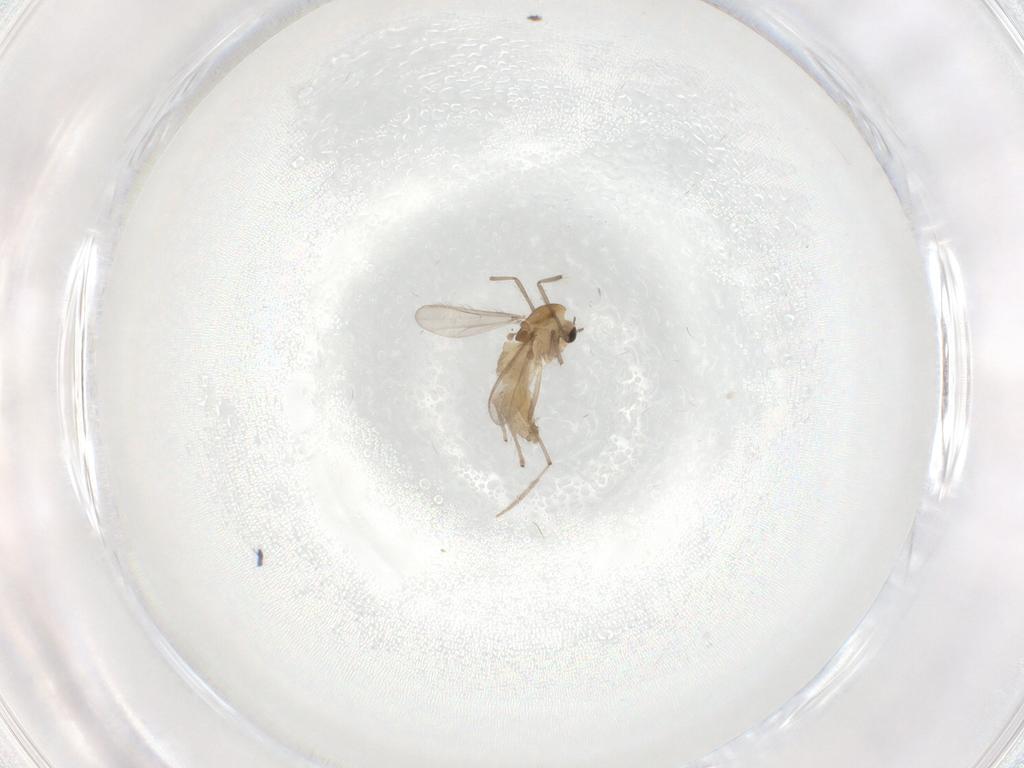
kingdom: Animalia
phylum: Arthropoda
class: Insecta
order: Diptera
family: Chironomidae
